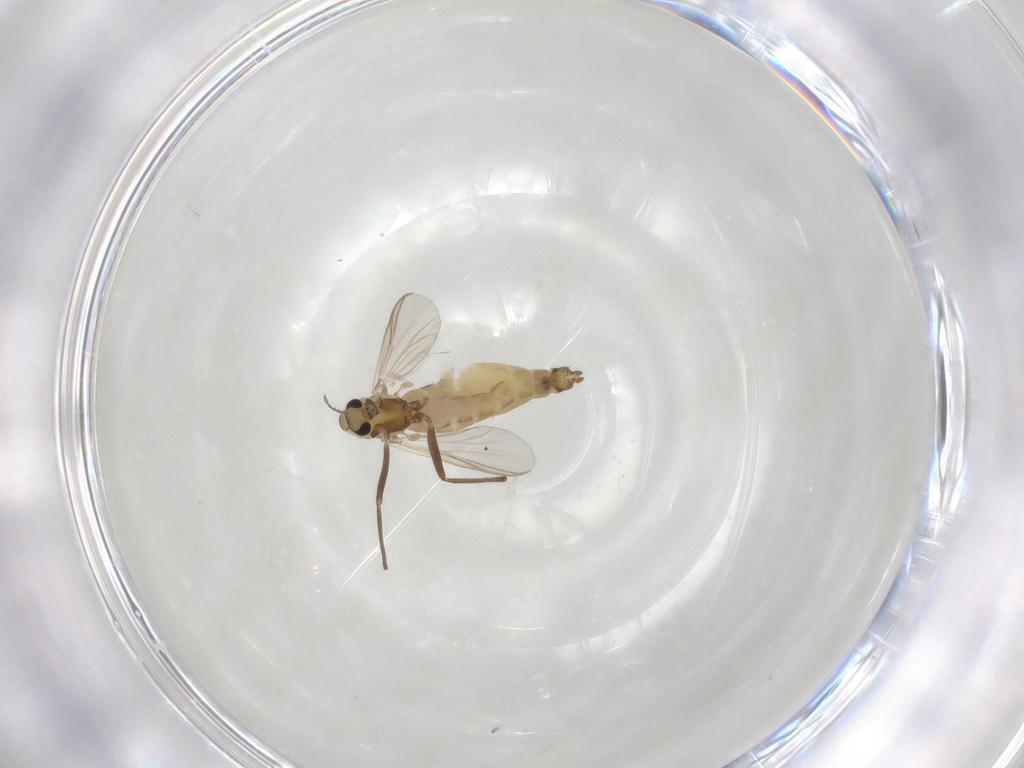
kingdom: Animalia
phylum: Arthropoda
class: Insecta
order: Diptera
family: Chironomidae
